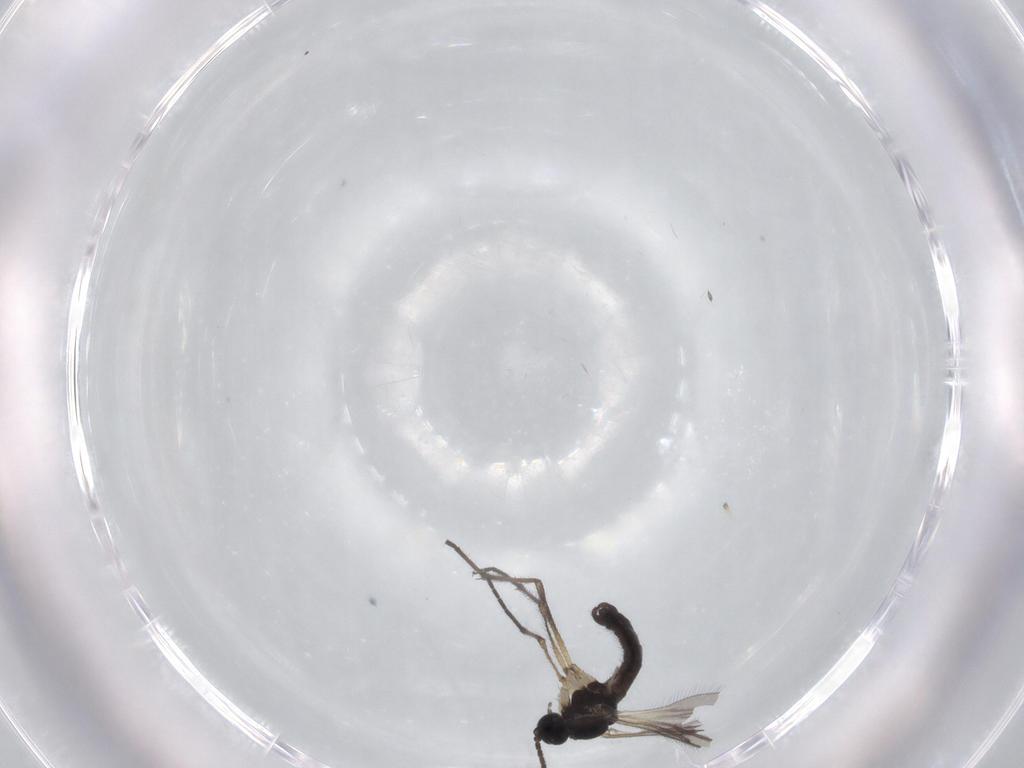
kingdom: Animalia
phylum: Arthropoda
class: Insecta
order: Diptera
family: Sciaridae
